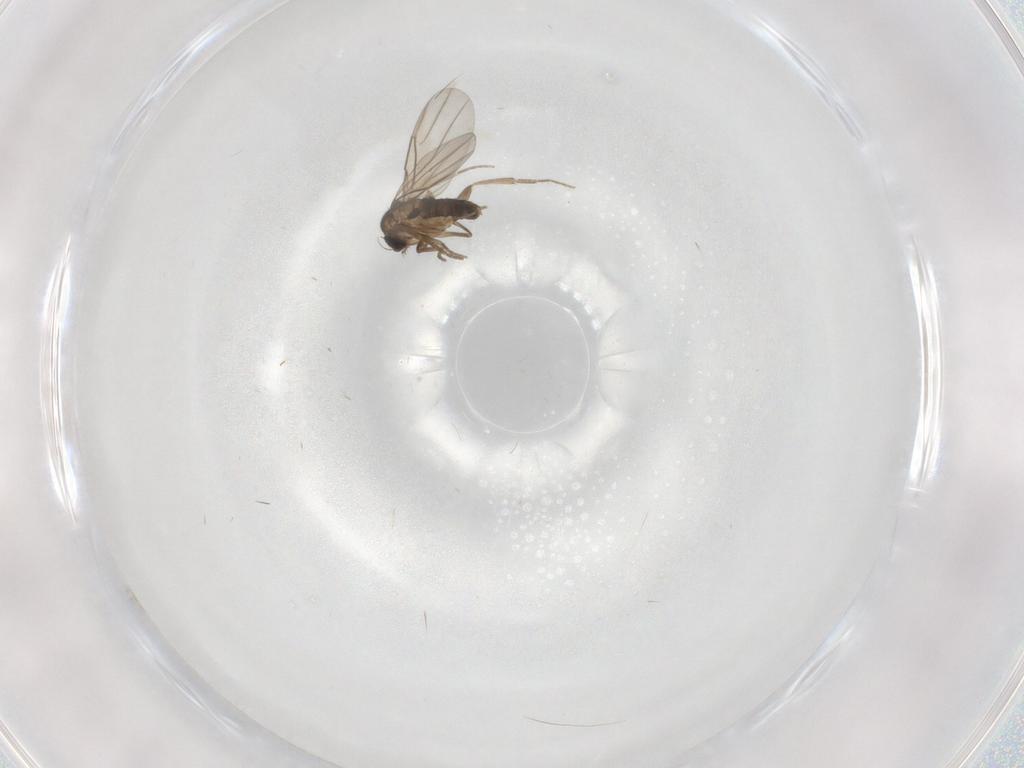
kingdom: Animalia
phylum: Arthropoda
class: Insecta
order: Diptera
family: Phoridae
